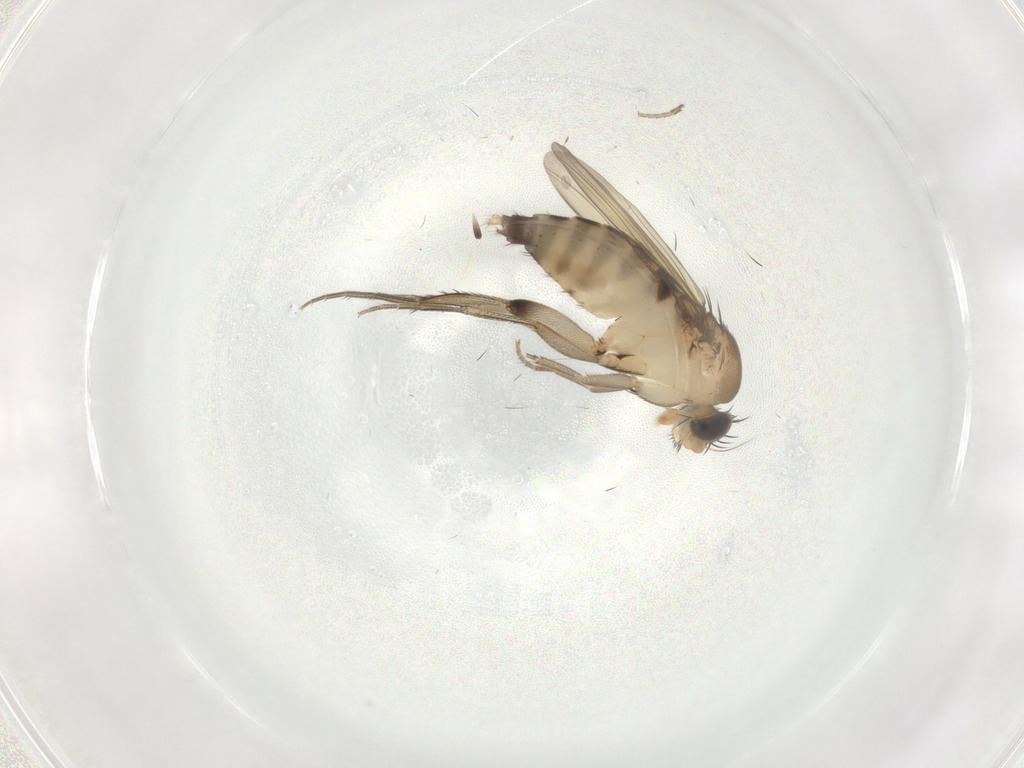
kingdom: Animalia
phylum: Arthropoda
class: Insecta
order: Diptera
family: Phoridae
